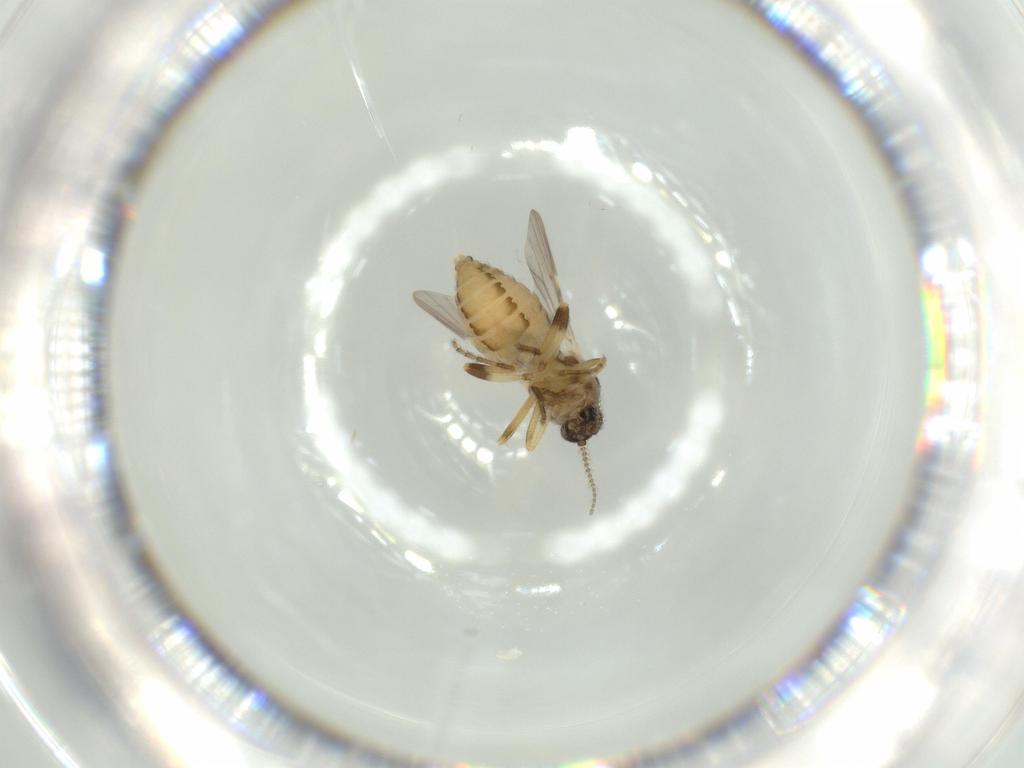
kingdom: Animalia
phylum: Arthropoda
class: Insecta
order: Diptera
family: Ceratopogonidae
